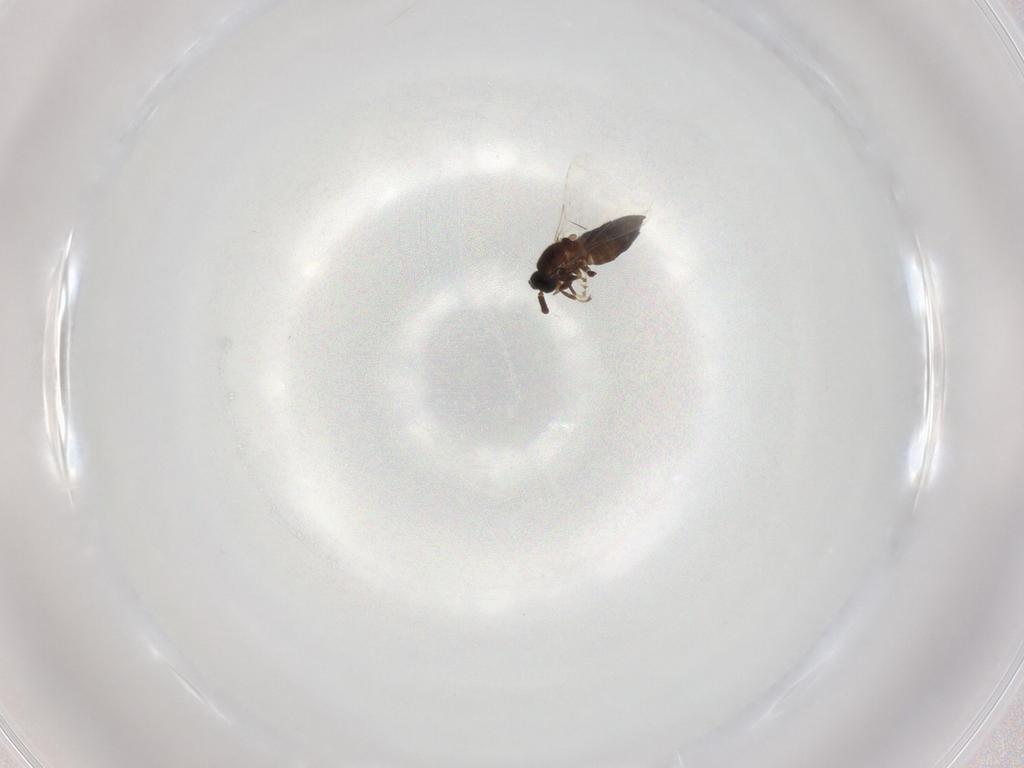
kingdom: Animalia
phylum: Arthropoda
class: Insecta
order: Diptera
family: Scatopsidae
